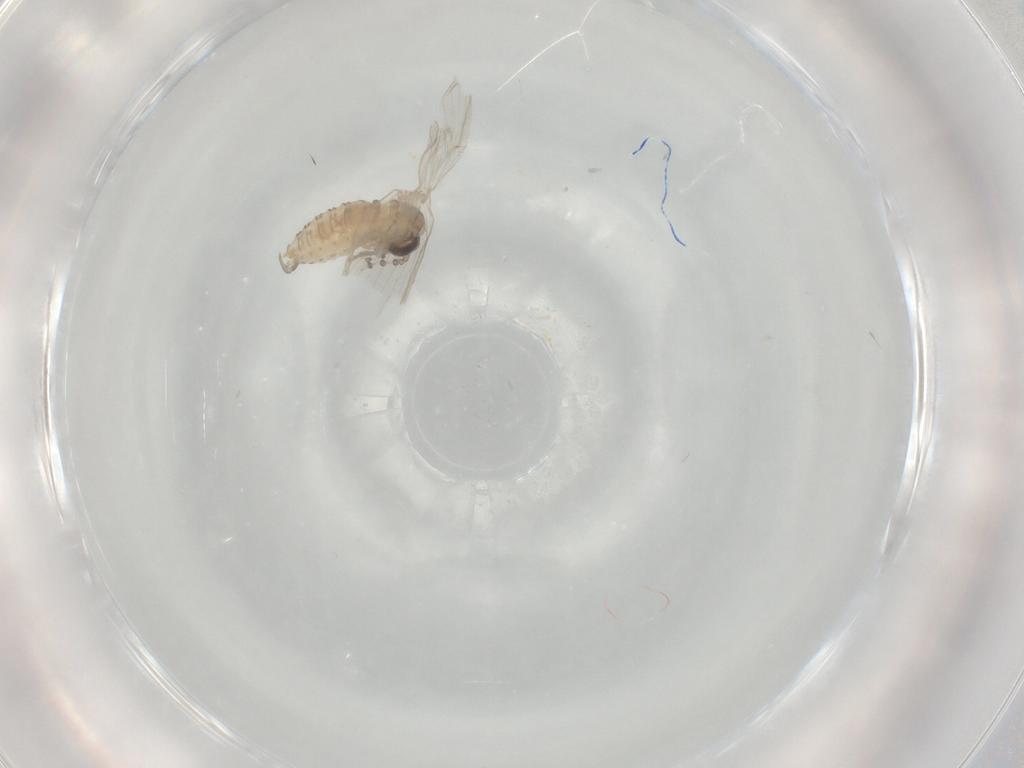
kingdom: Animalia
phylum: Arthropoda
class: Insecta
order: Diptera
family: Psychodidae
